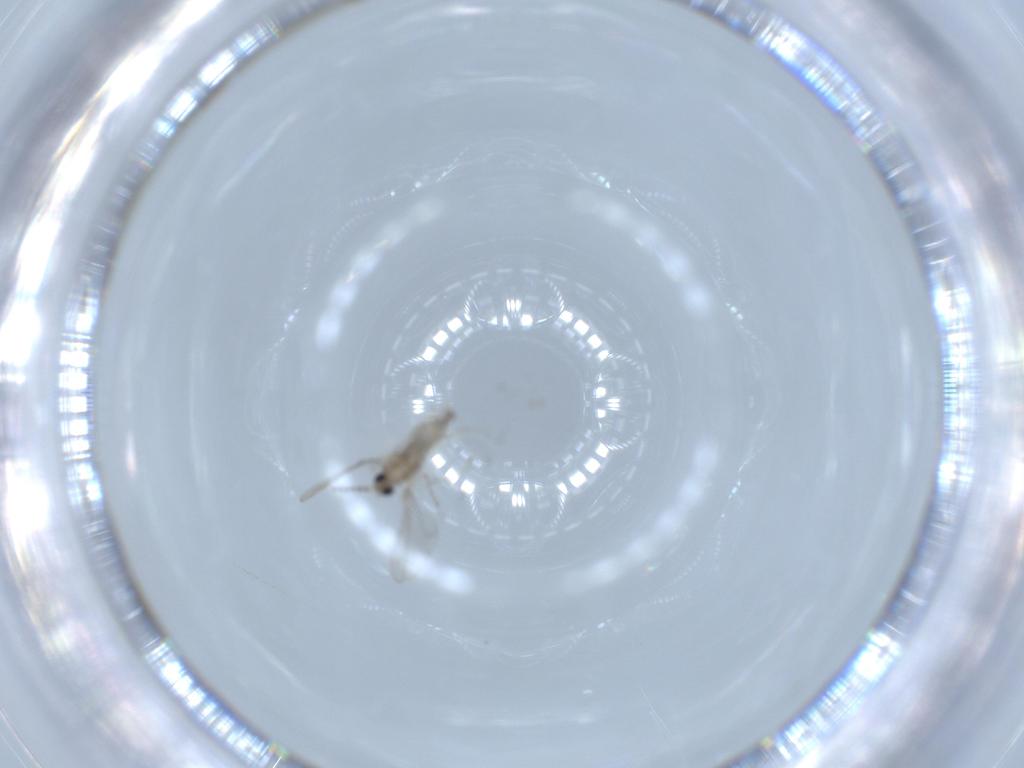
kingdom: Animalia
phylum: Arthropoda
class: Insecta
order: Diptera
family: Cecidomyiidae
